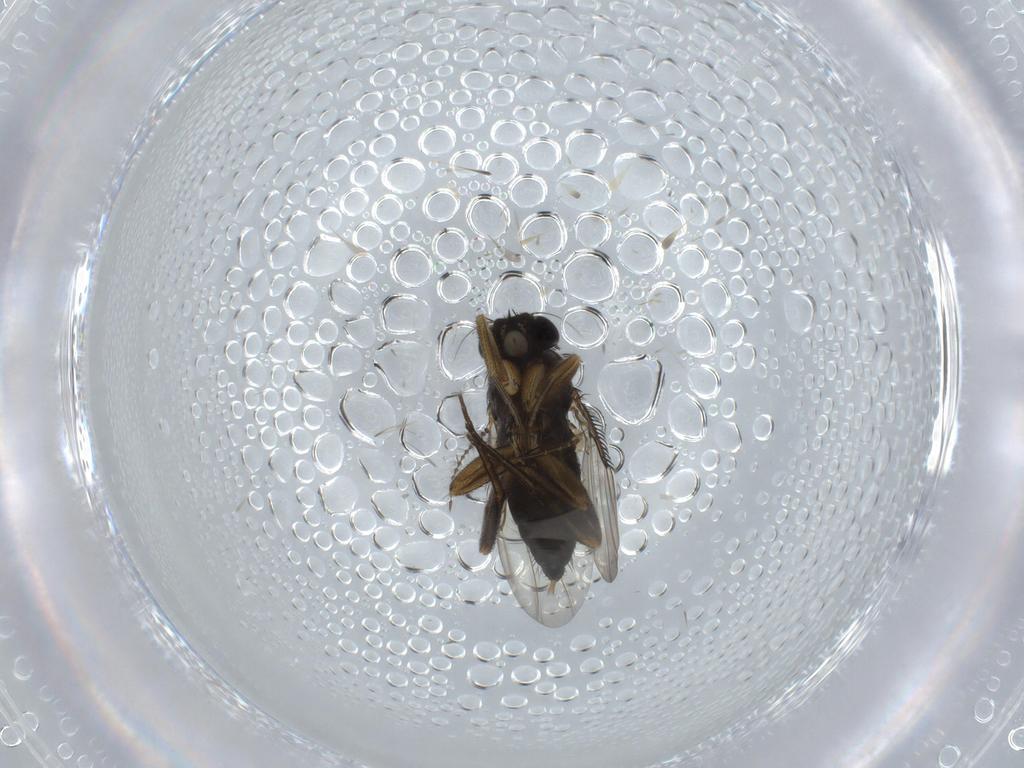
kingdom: Animalia
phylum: Arthropoda
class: Insecta
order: Diptera
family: Phoridae
